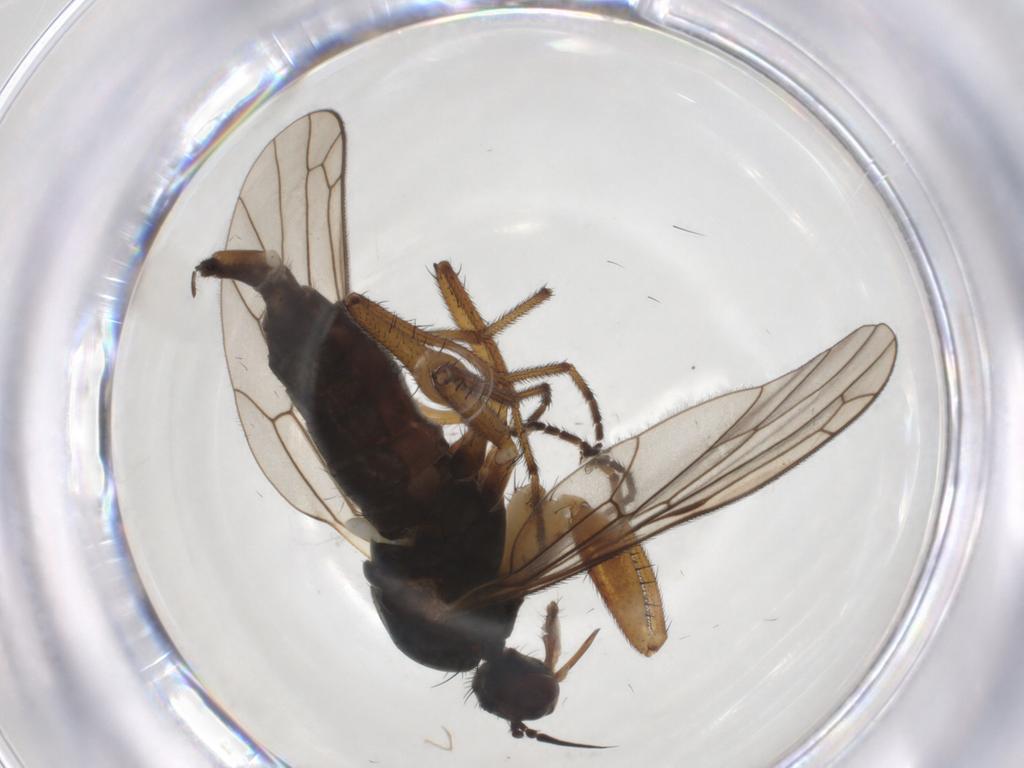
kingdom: Animalia
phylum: Arthropoda
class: Insecta
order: Diptera
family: Empididae
